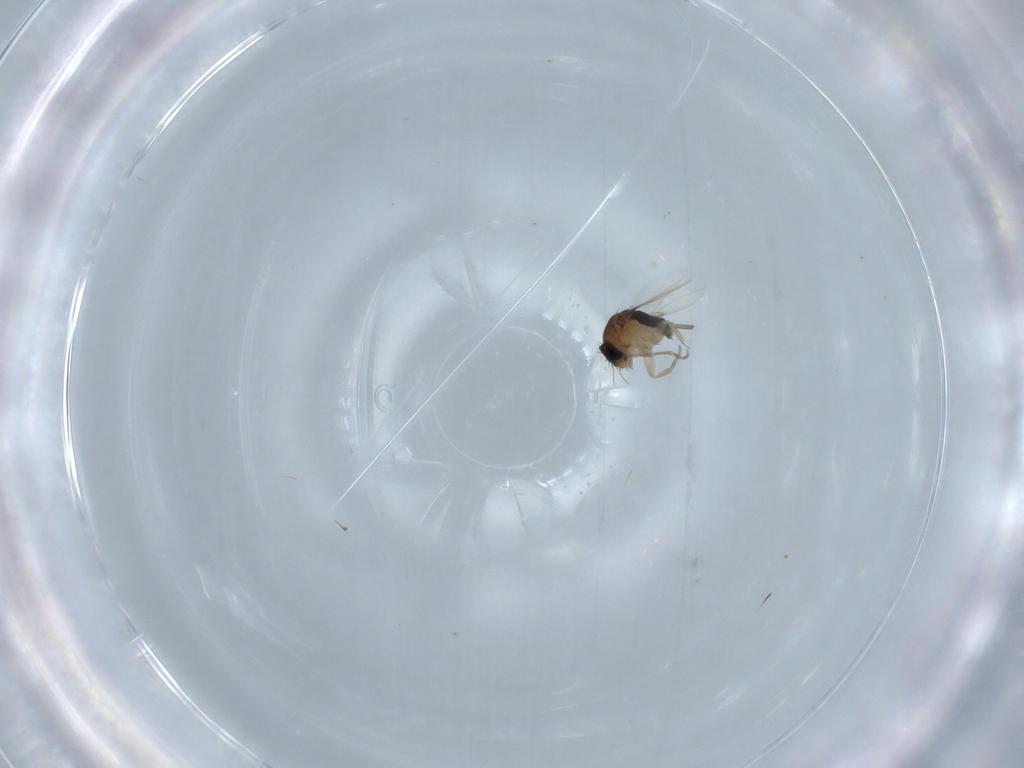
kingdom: Animalia
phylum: Arthropoda
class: Insecta
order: Diptera
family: Phoridae
